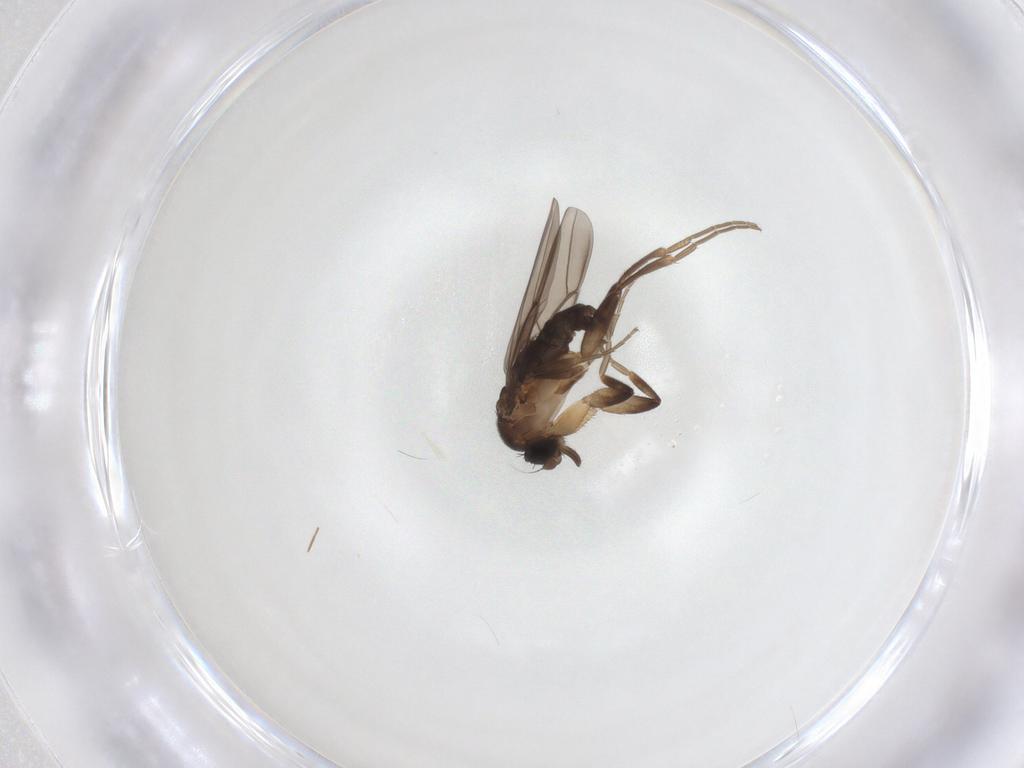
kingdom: Animalia
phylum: Arthropoda
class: Insecta
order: Diptera
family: Phoridae
